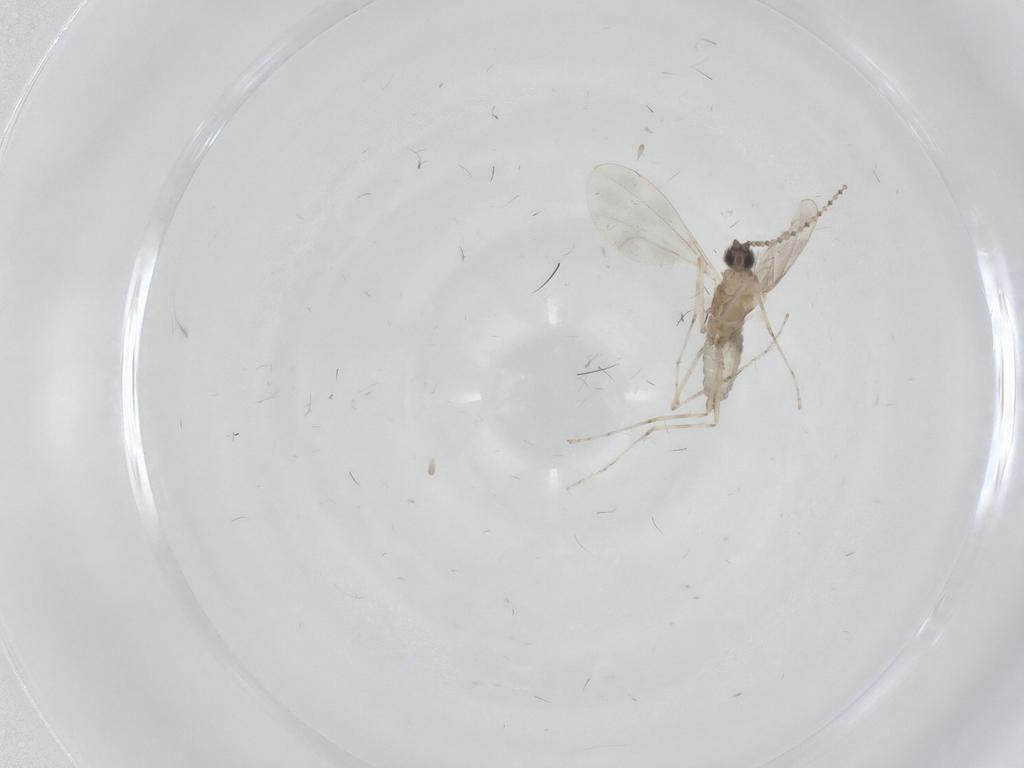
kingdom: Animalia
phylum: Arthropoda
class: Insecta
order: Diptera
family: Cecidomyiidae
